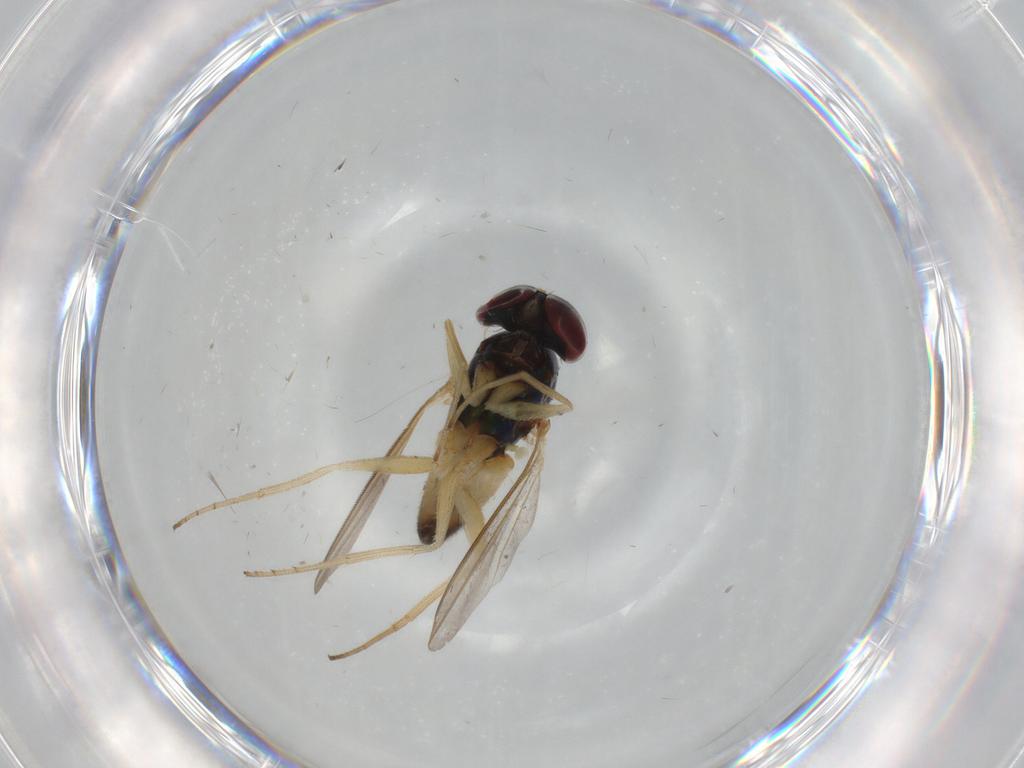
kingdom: Animalia
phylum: Arthropoda
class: Insecta
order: Diptera
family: Dolichopodidae
